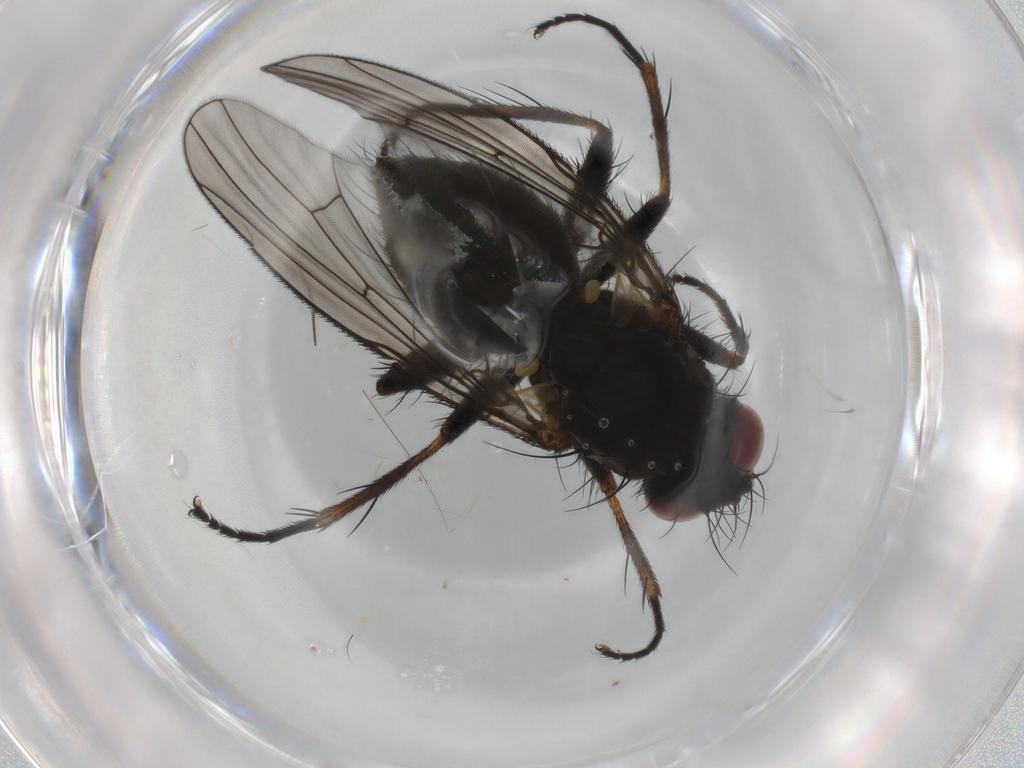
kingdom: Animalia
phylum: Arthropoda
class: Insecta
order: Diptera
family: Muscidae
